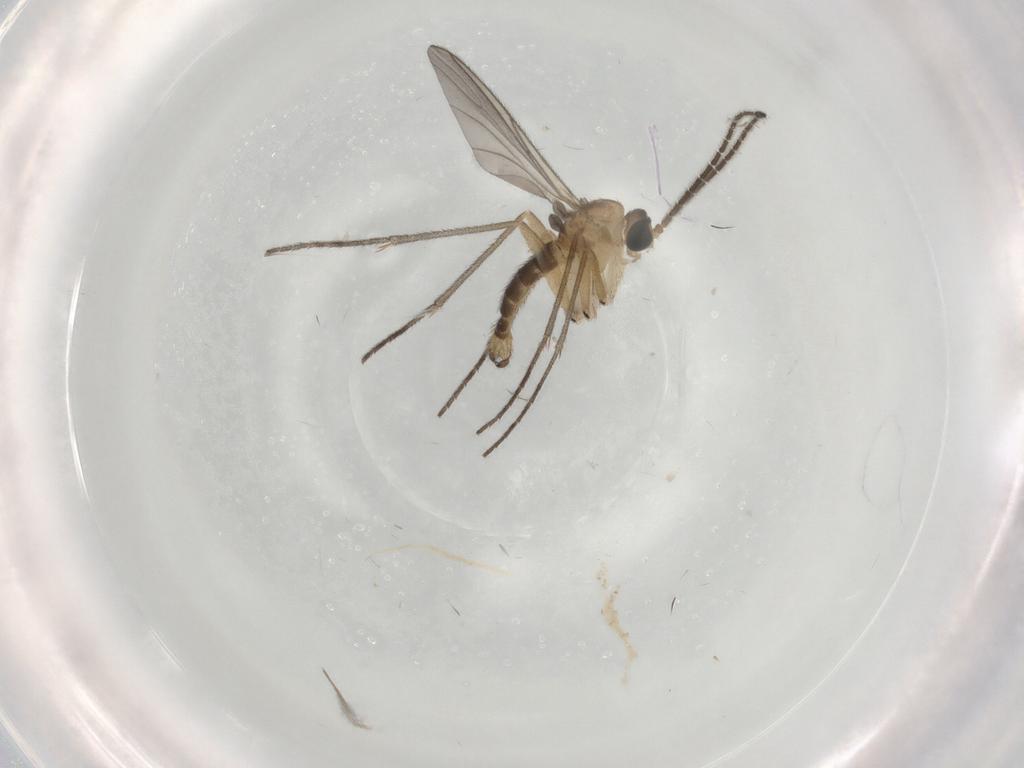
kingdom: Animalia
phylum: Arthropoda
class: Insecta
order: Diptera
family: Sciaridae
